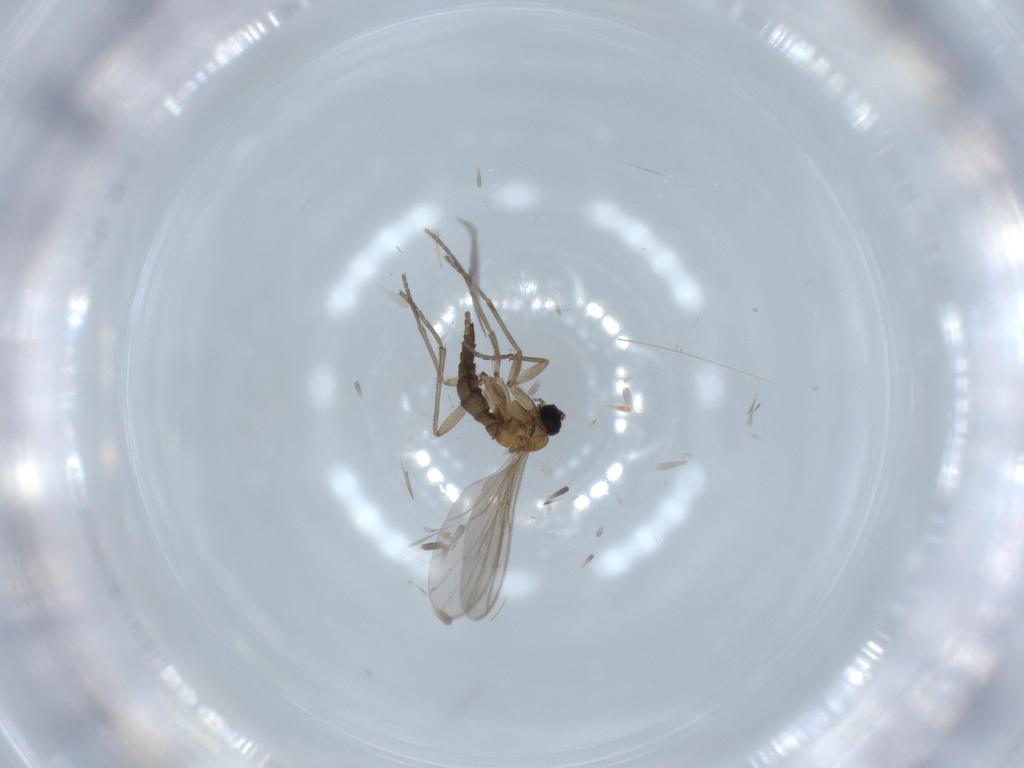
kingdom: Animalia
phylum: Arthropoda
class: Insecta
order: Diptera
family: Sciaridae
